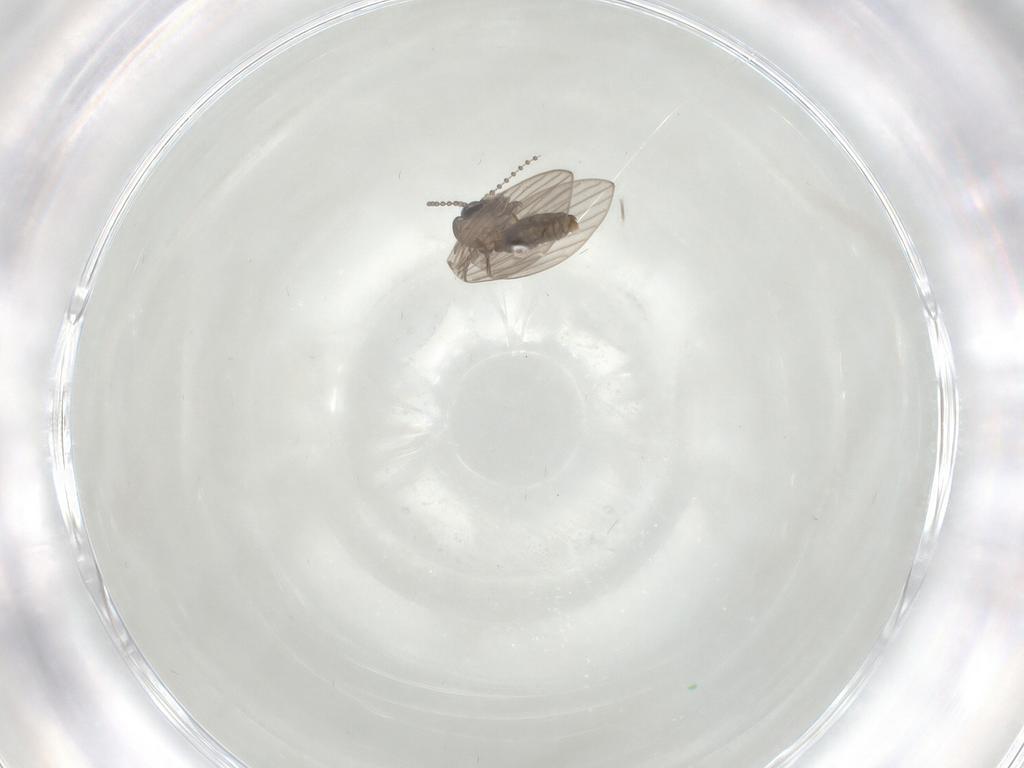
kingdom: Animalia
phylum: Arthropoda
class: Insecta
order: Diptera
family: Psychodidae
